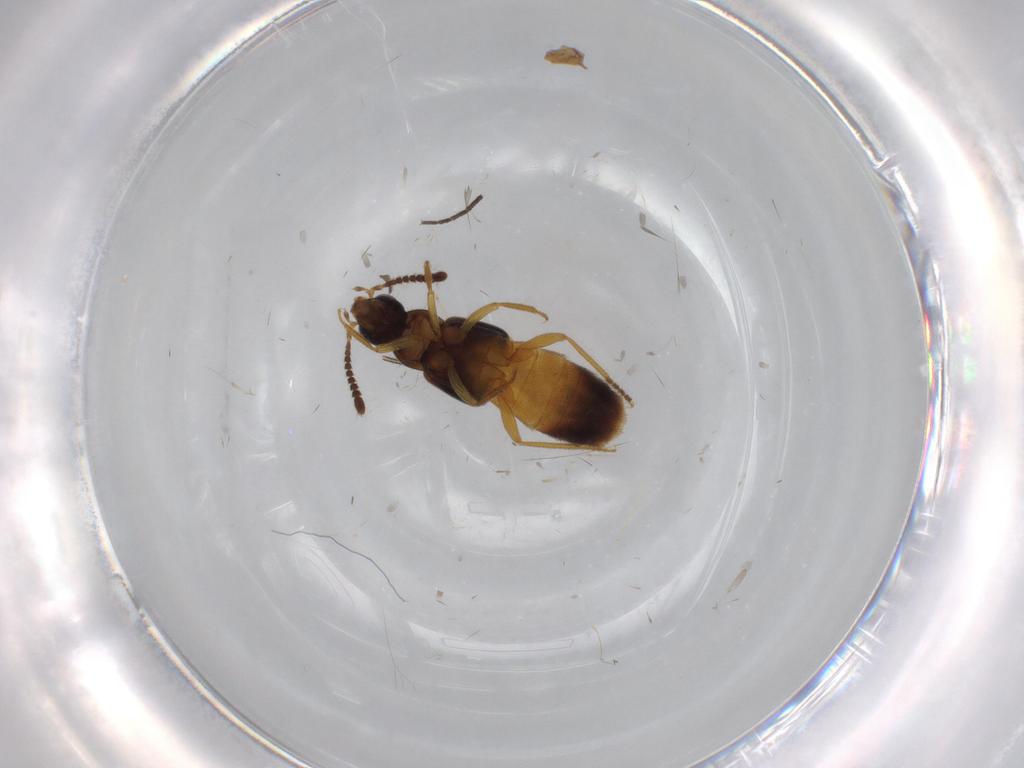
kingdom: Animalia
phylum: Arthropoda
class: Insecta
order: Coleoptera
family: Staphylinidae
